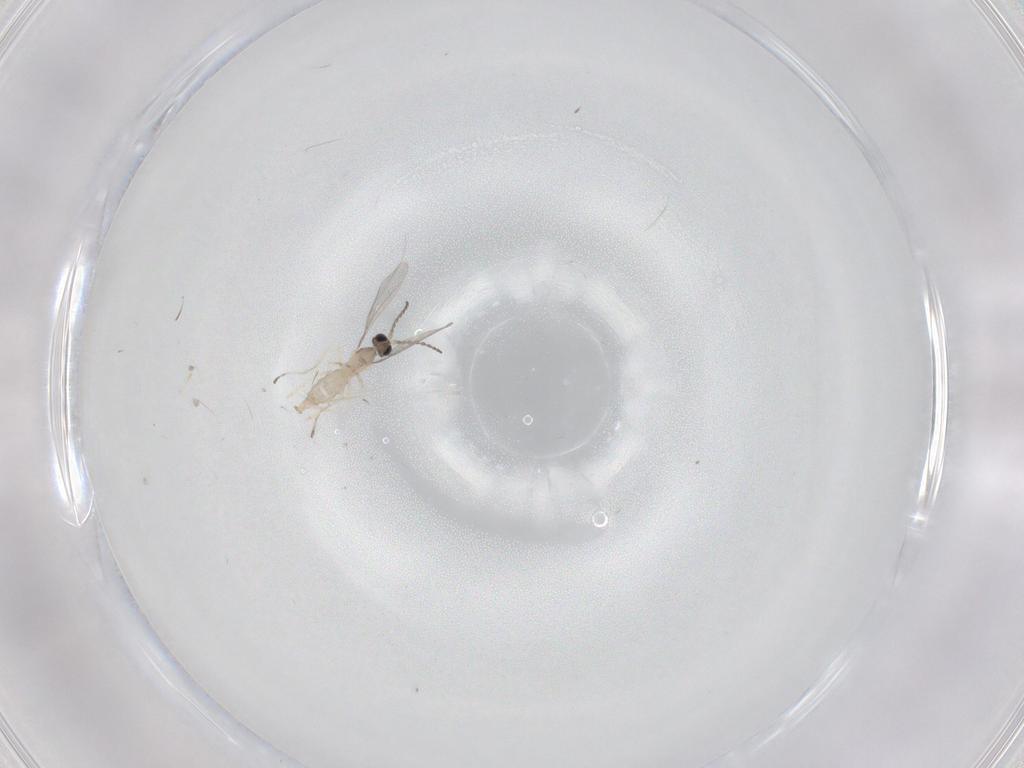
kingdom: Animalia
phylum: Arthropoda
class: Insecta
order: Diptera
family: Cecidomyiidae
